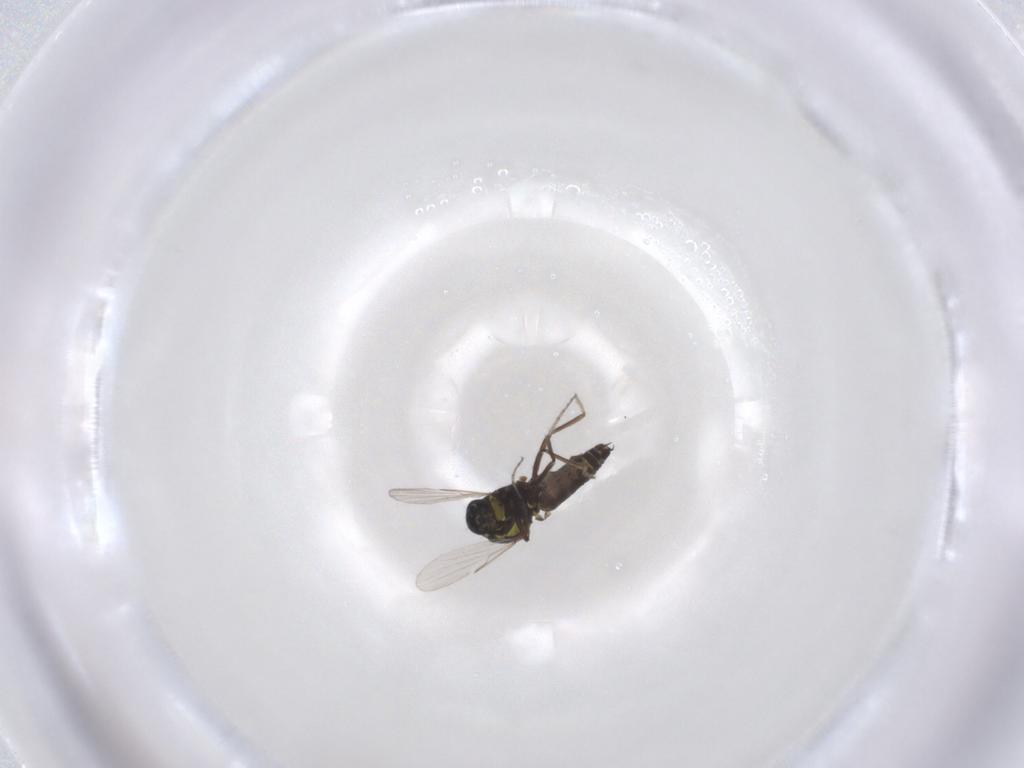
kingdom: Animalia
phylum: Arthropoda
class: Insecta
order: Diptera
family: Ceratopogonidae
